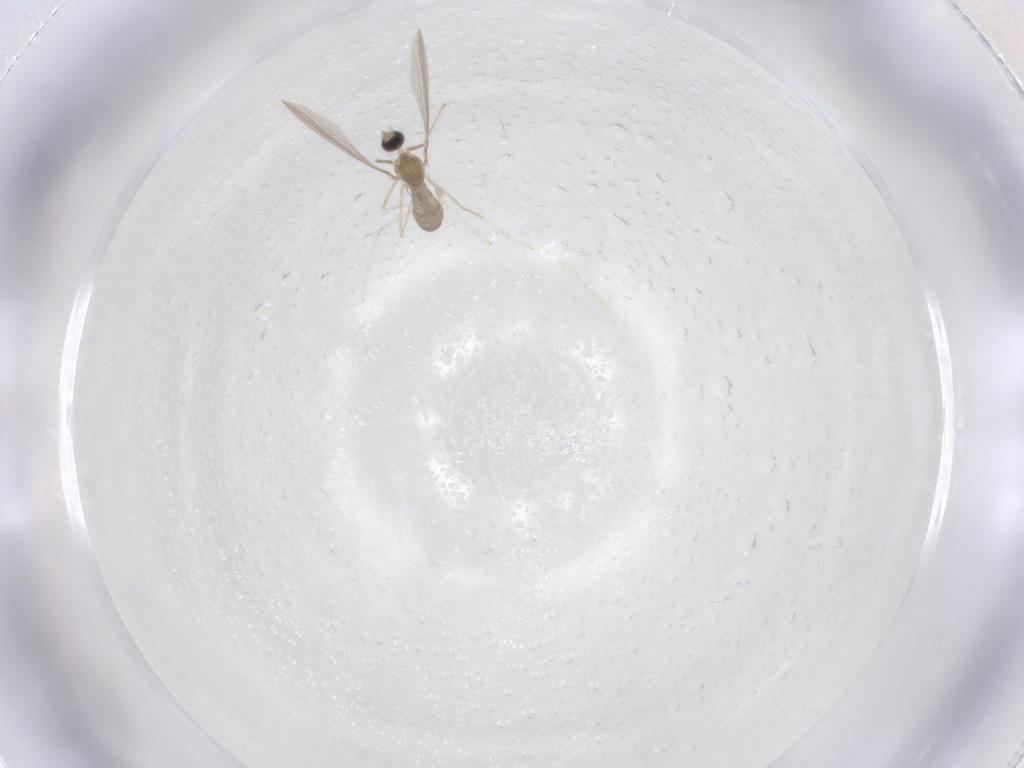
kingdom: Animalia
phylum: Arthropoda
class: Insecta
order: Diptera
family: Cecidomyiidae
